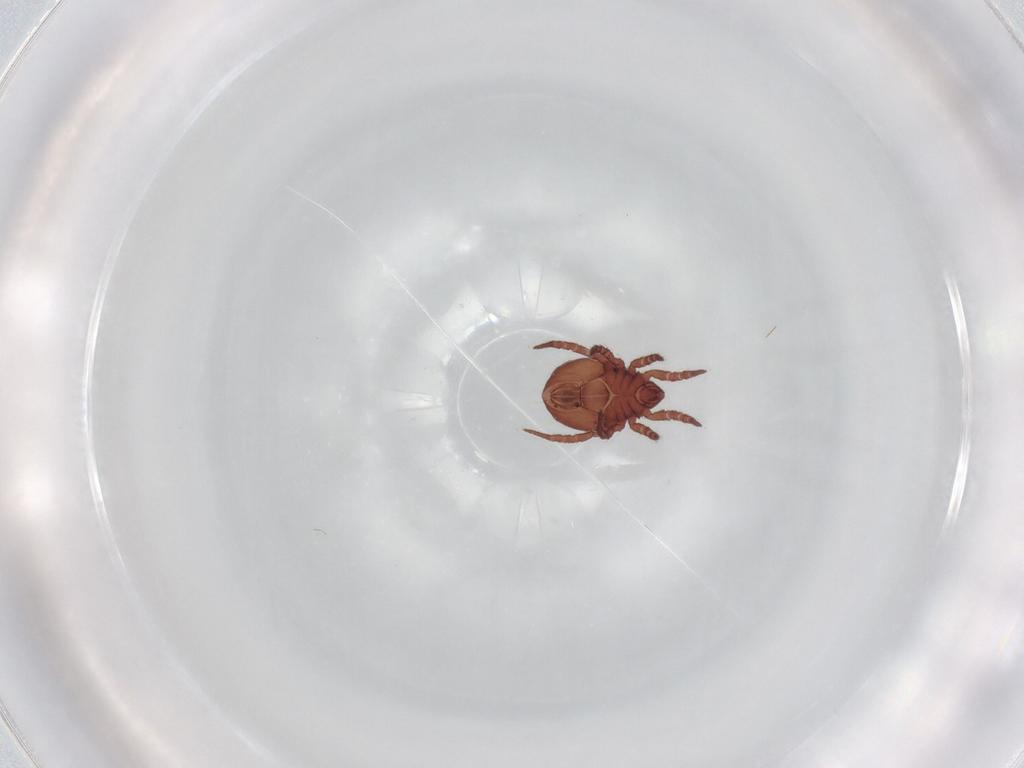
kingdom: Animalia
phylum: Arthropoda
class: Arachnida
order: Sarcoptiformes
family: Nothridae
